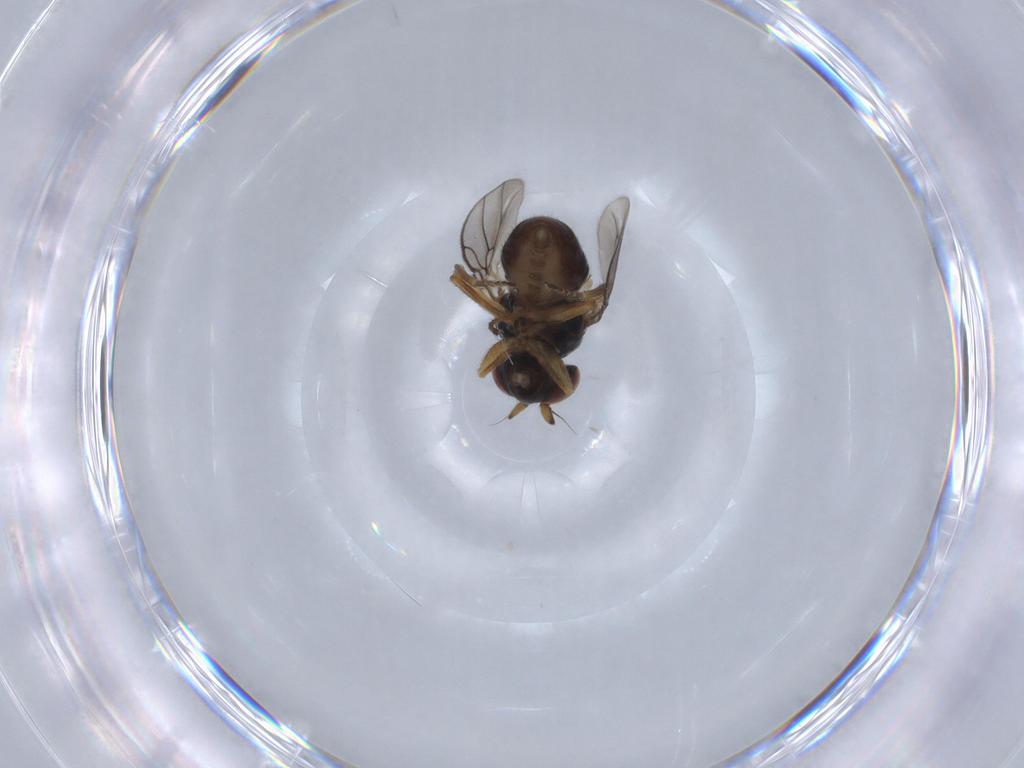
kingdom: Animalia
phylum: Arthropoda
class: Insecta
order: Diptera
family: Ephydridae
